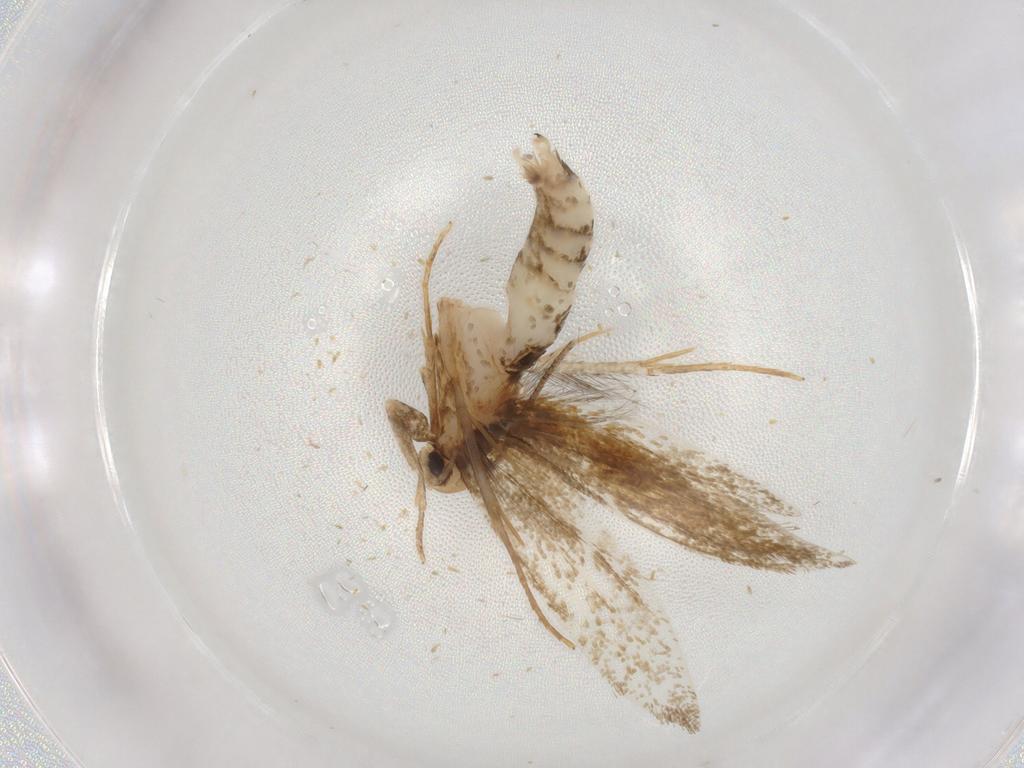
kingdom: Animalia
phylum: Arthropoda
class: Insecta
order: Lepidoptera
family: Tineidae
